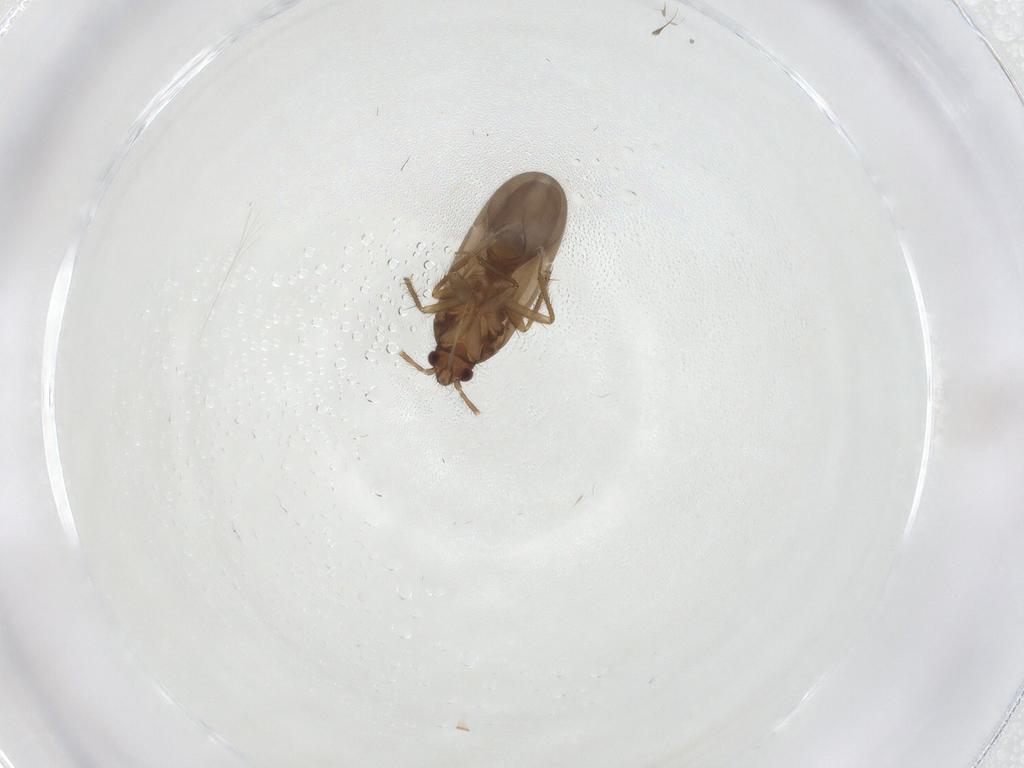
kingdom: Animalia
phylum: Arthropoda
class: Insecta
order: Hemiptera
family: Ceratocombidae
